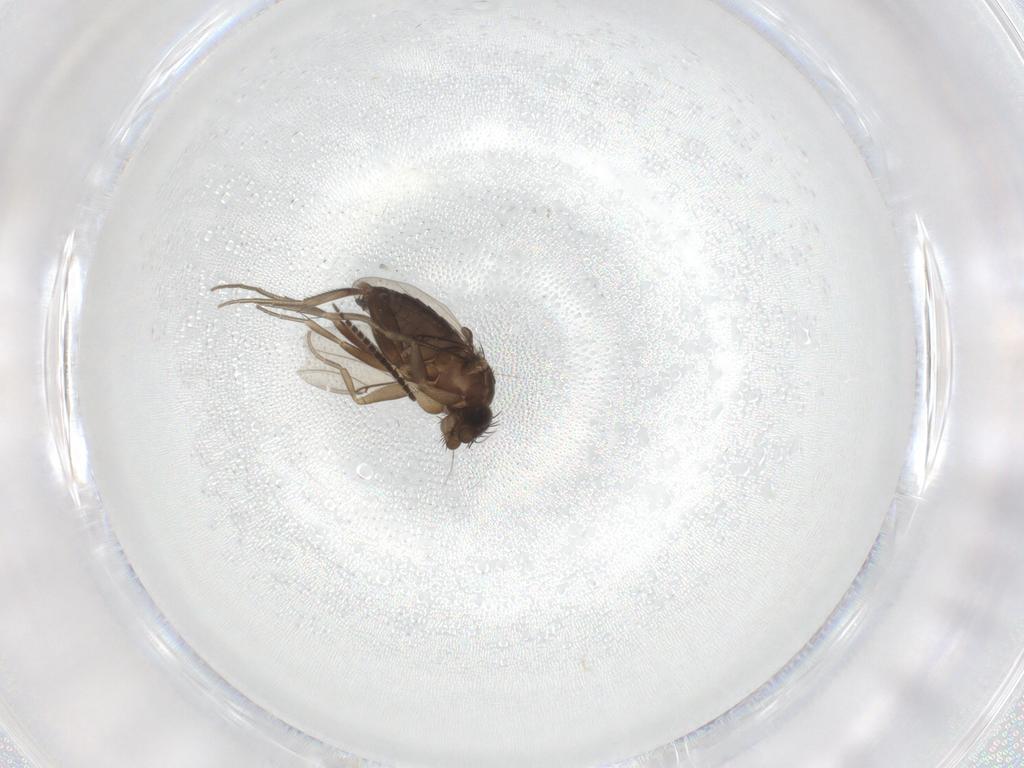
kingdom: Animalia
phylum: Arthropoda
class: Insecta
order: Diptera
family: Phoridae
